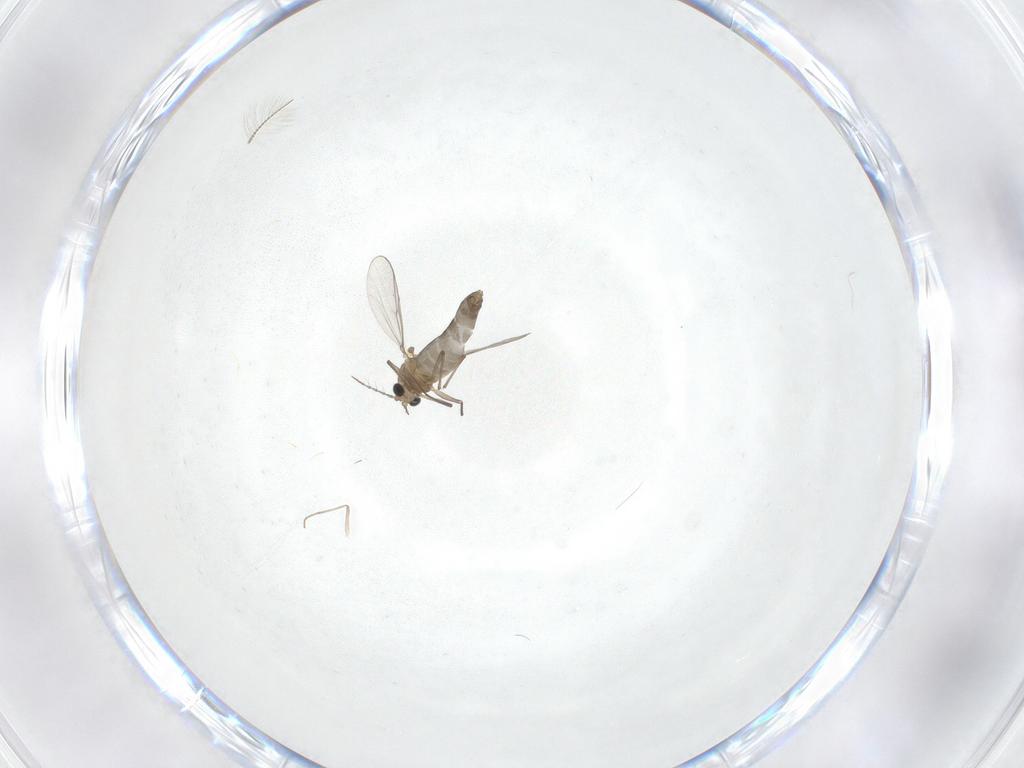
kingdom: Animalia
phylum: Arthropoda
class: Insecta
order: Diptera
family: Chironomidae
